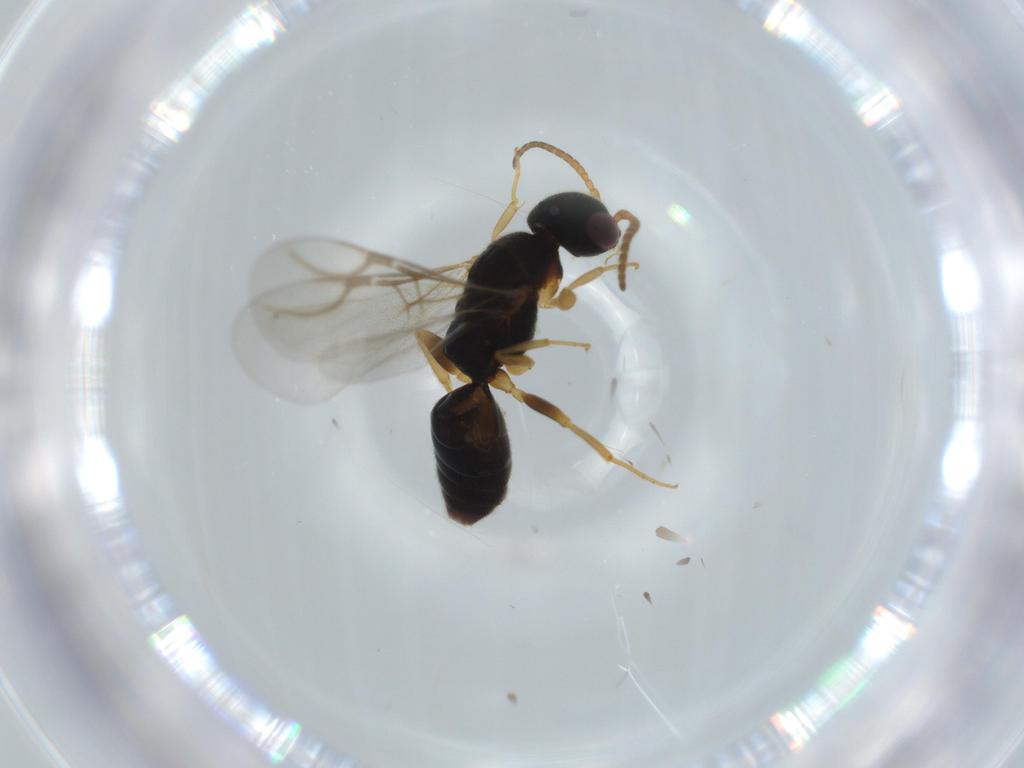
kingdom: Animalia
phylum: Arthropoda
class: Insecta
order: Hymenoptera
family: Bethylidae
